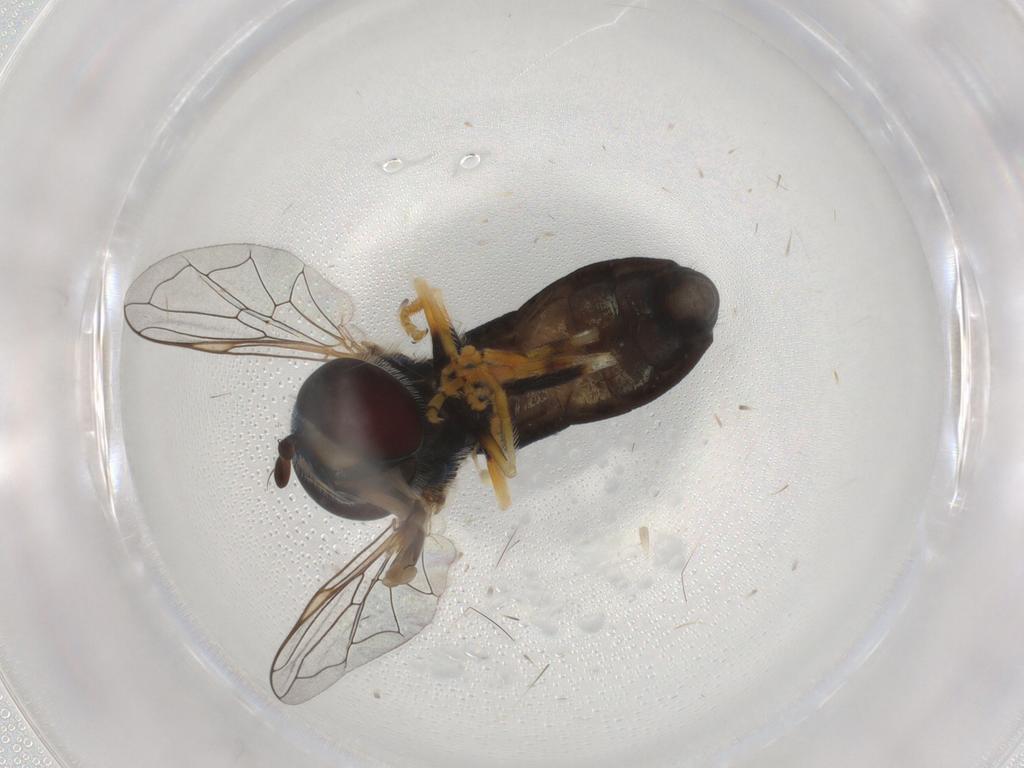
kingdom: Animalia
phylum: Arthropoda
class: Insecta
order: Diptera
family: Syrphidae
